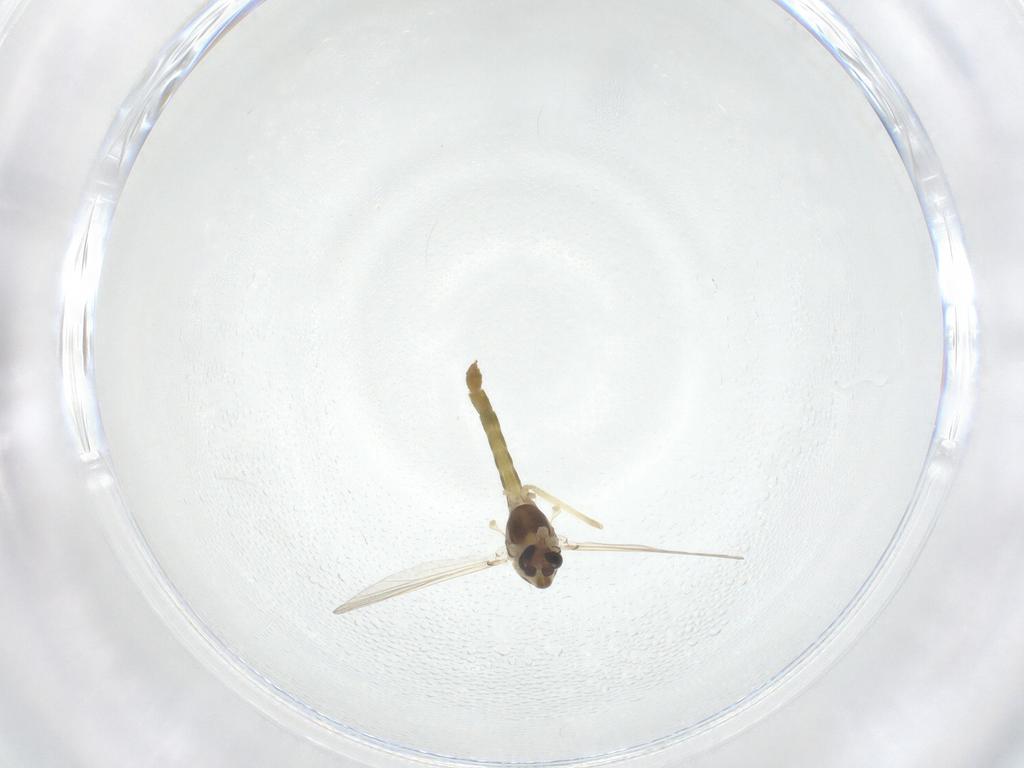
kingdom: Animalia
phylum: Arthropoda
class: Insecta
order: Diptera
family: Chironomidae
